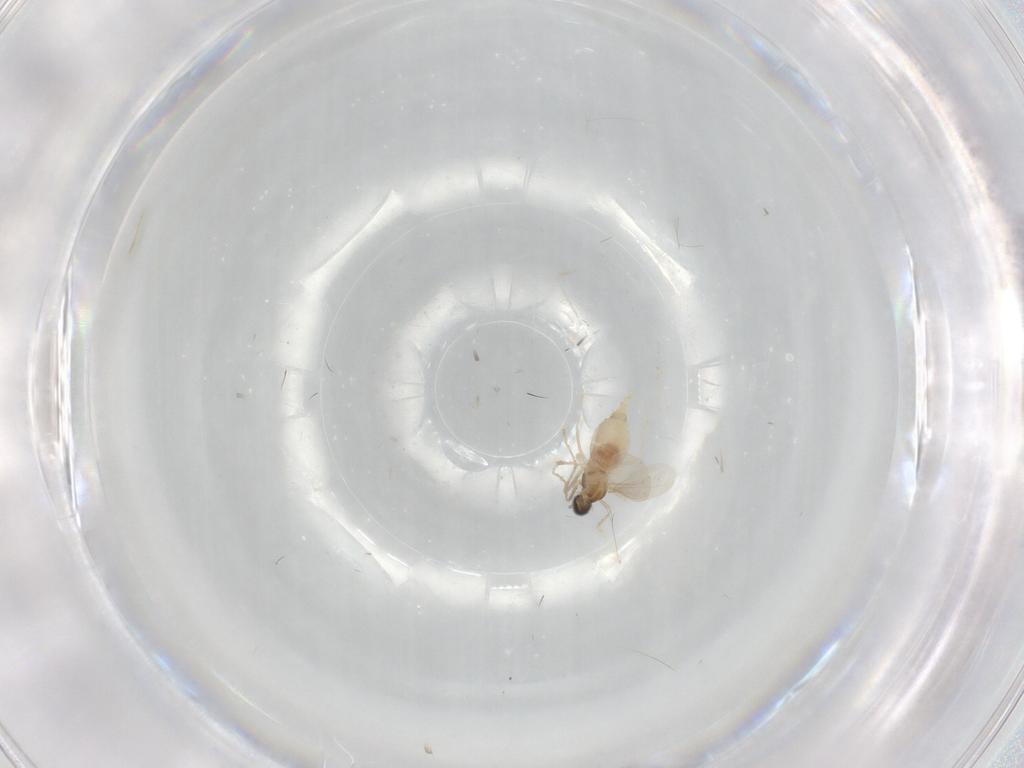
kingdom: Animalia
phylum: Arthropoda
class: Insecta
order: Diptera
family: Cecidomyiidae
